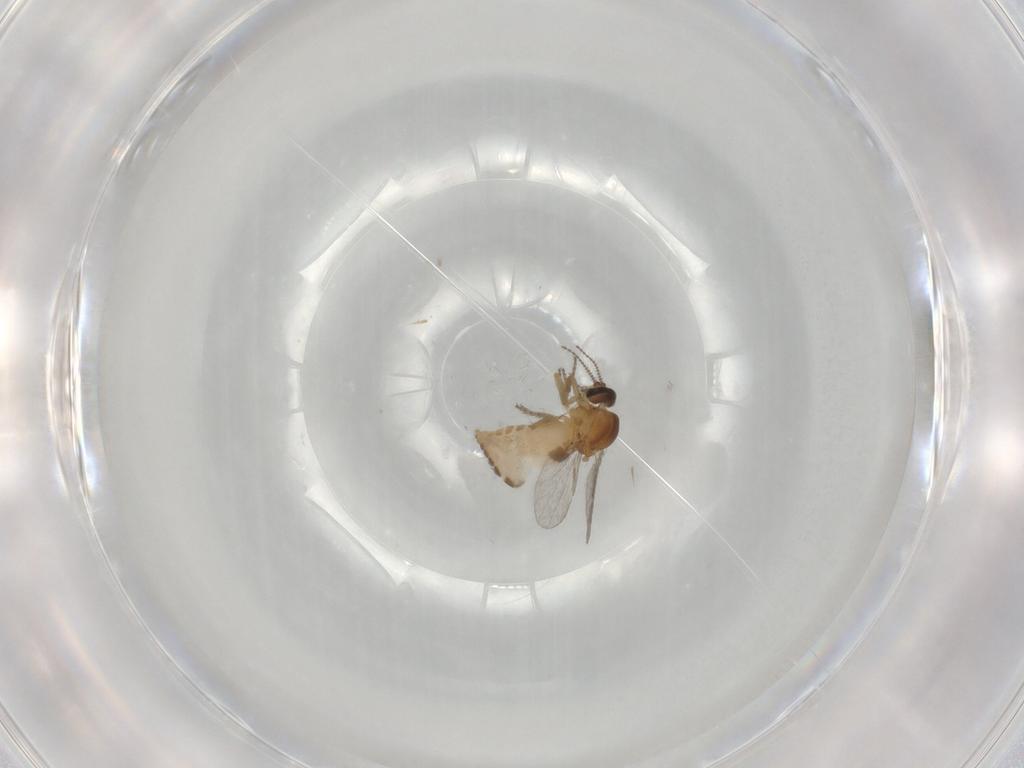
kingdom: Animalia
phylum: Arthropoda
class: Insecta
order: Diptera
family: Ceratopogonidae
